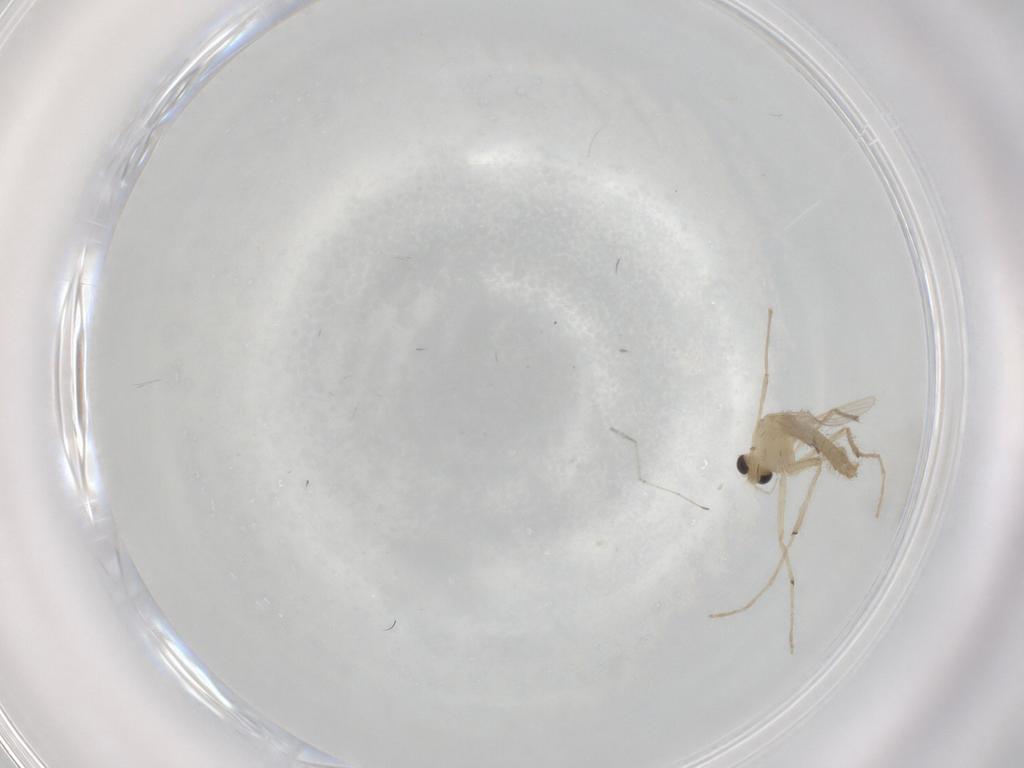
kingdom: Animalia
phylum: Arthropoda
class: Insecta
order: Diptera
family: Chironomidae
